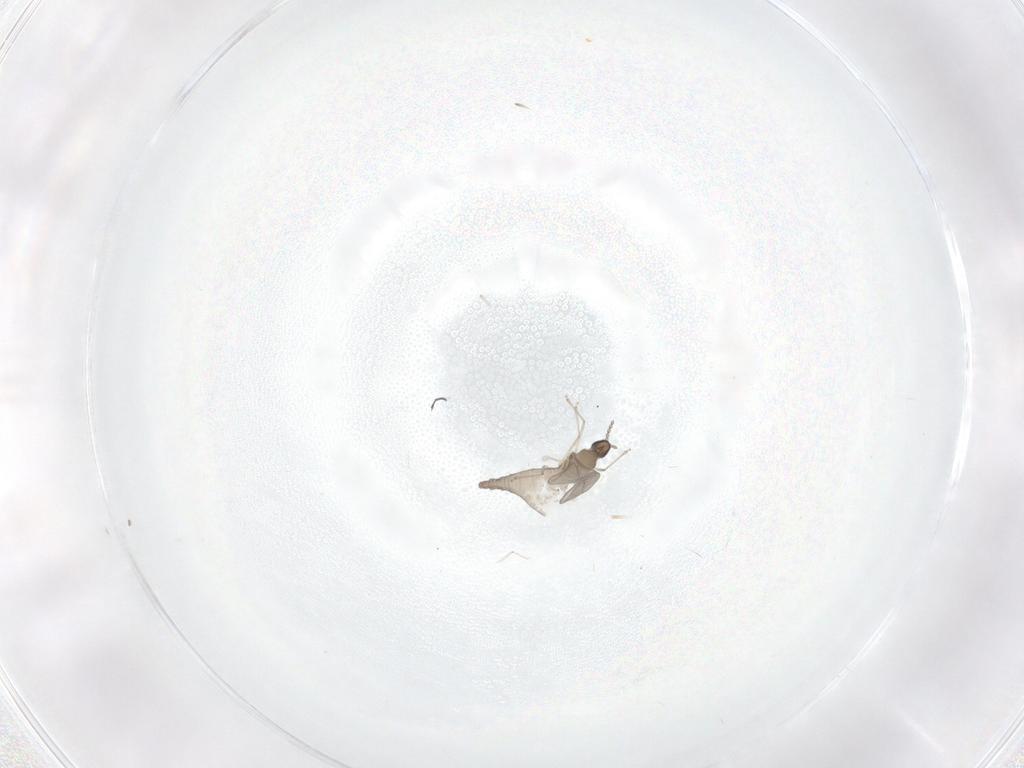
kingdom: Animalia
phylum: Arthropoda
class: Insecta
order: Diptera
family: Cecidomyiidae
